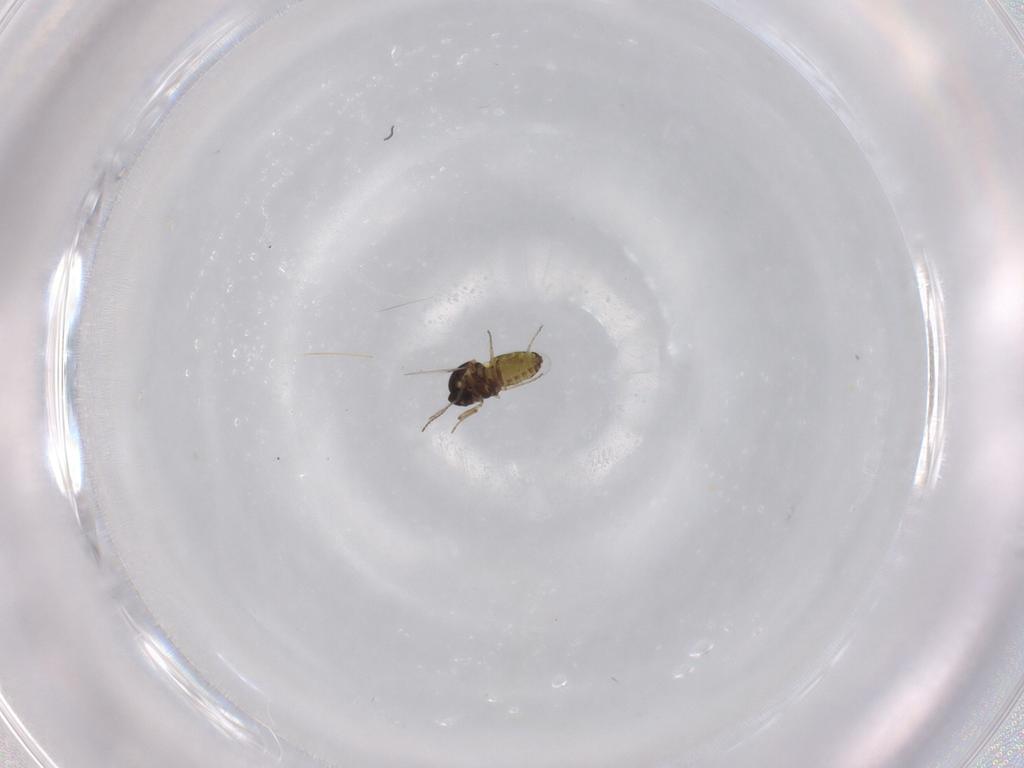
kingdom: Animalia
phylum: Arthropoda
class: Insecta
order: Diptera
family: Ceratopogonidae
